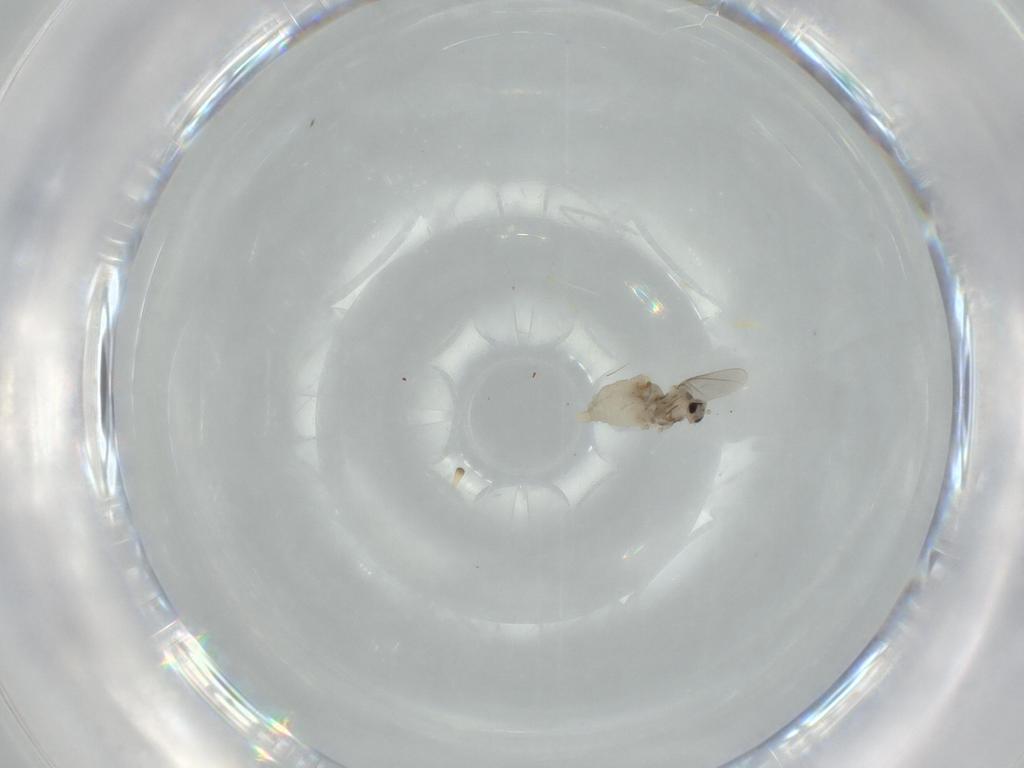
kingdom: Animalia
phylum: Arthropoda
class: Insecta
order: Diptera
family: Cecidomyiidae
